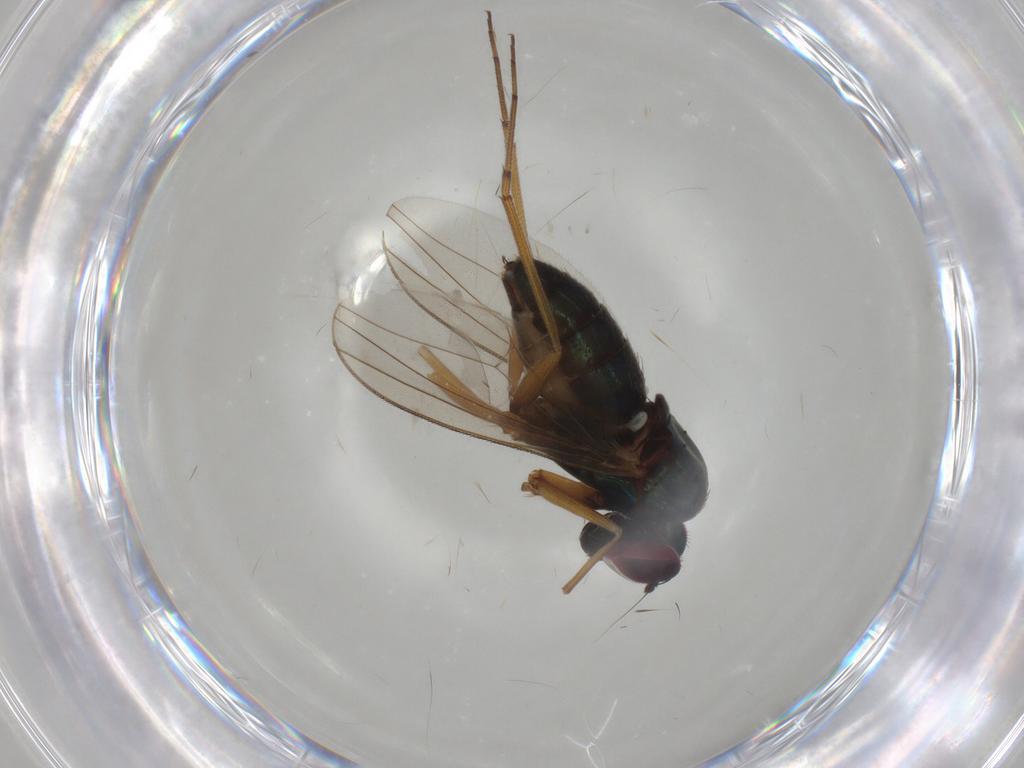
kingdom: Animalia
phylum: Arthropoda
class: Insecta
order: Diptera
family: Dolichopodidae
